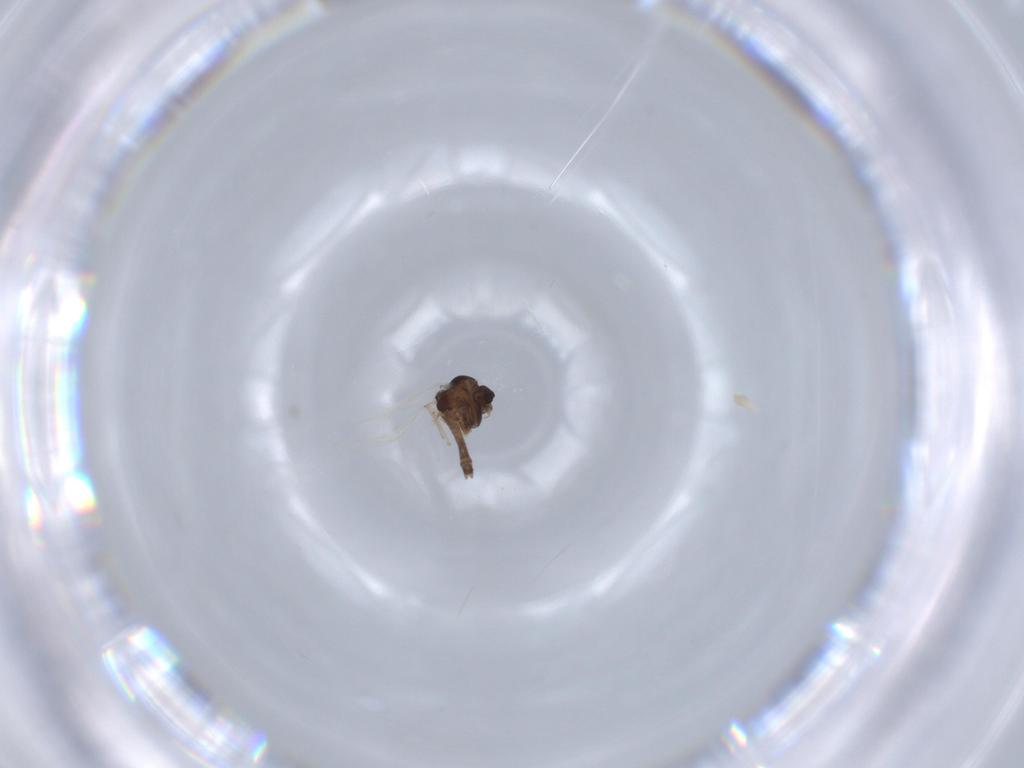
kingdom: Animalia
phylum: Arthropoda
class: Insecta
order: Diptera
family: Chironomidae
